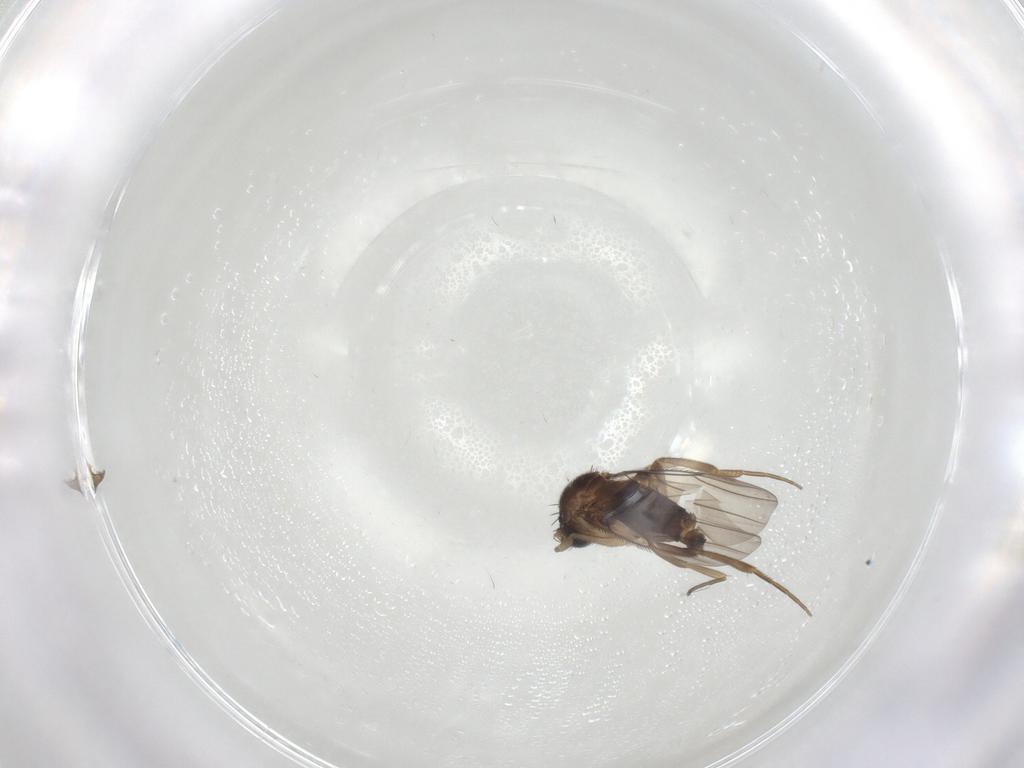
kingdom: Animalia
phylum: Arthropoda
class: Insecta
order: Diptera
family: Phoridae
